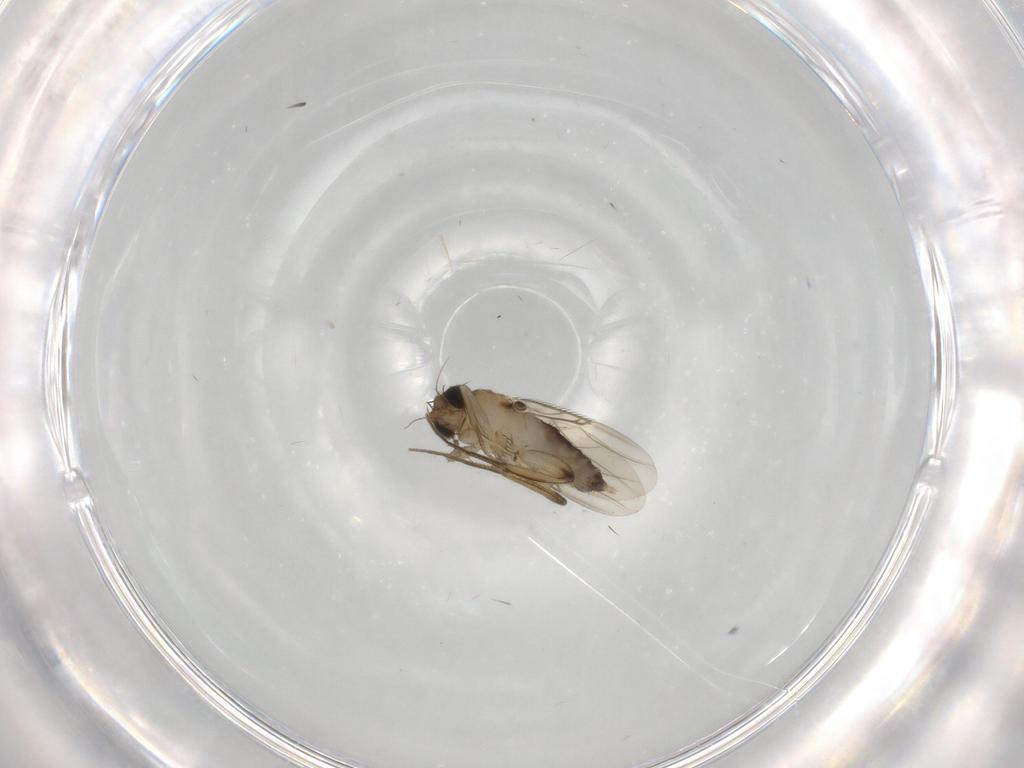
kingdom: Animalia
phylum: Arthropoda
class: Insecta
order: Diptera
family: Phoridae
